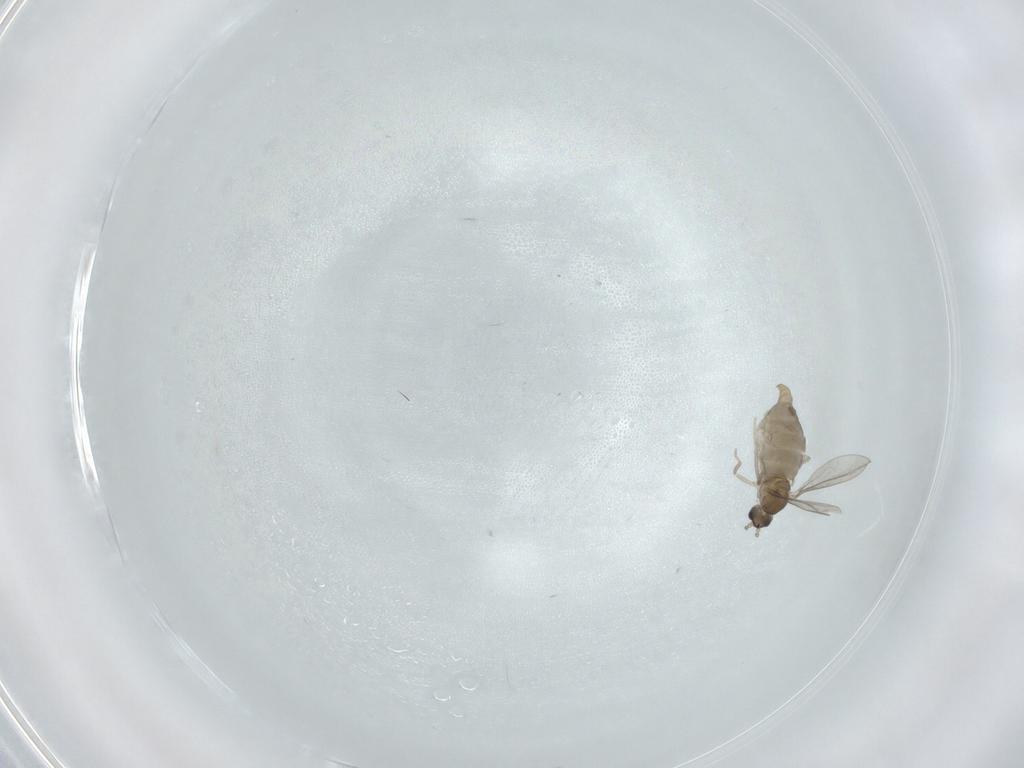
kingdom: Animalia
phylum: Arthropoda
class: Insecta
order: Diptera
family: Cecidomyiidae
